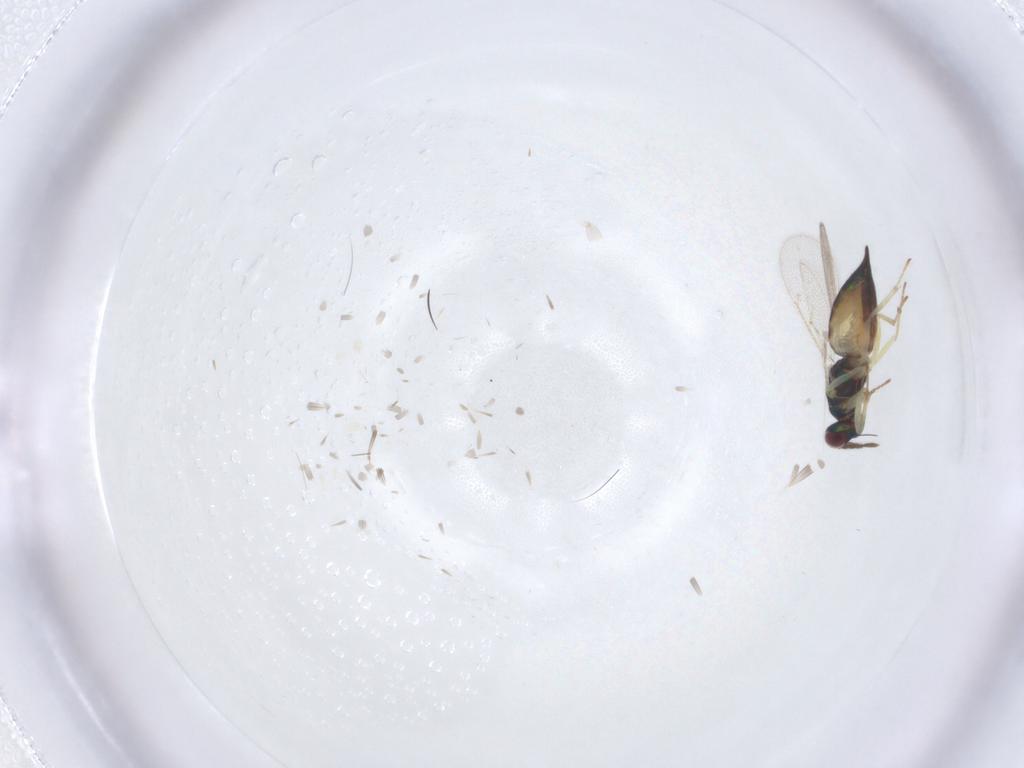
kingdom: Animalia
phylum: Arthropoda
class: Insecta
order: Hymenoptera
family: Eulophidae
